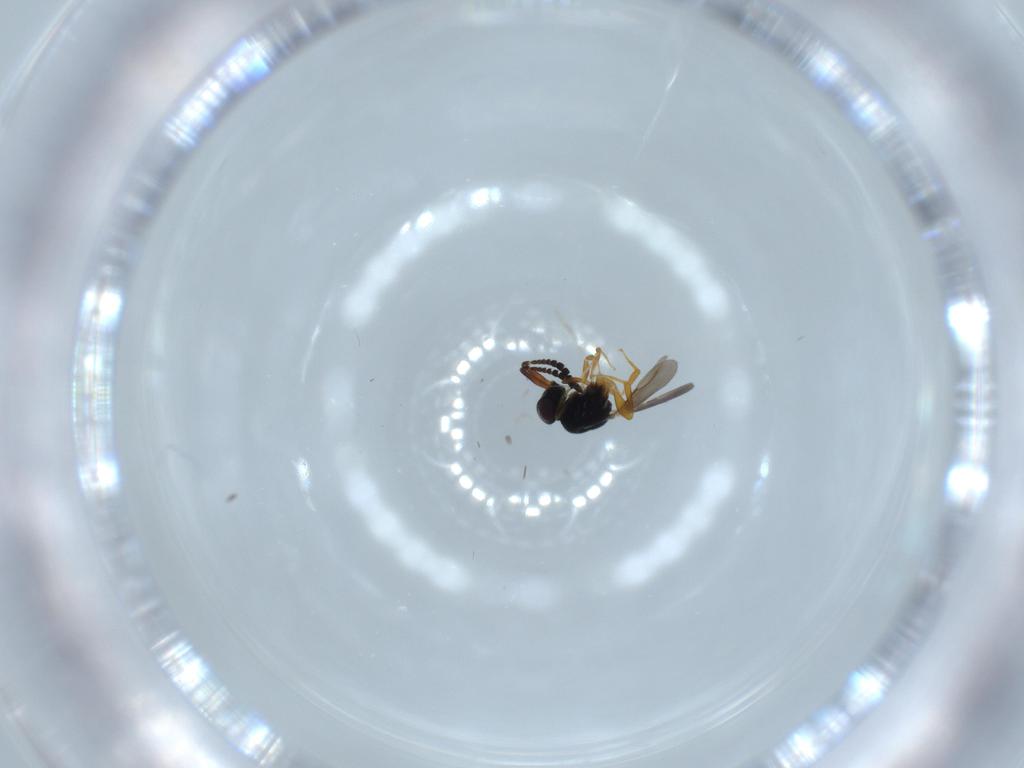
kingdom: Animalia
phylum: Arthropoda
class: Insecta
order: Hymenoptera
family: Ceraphronidae
